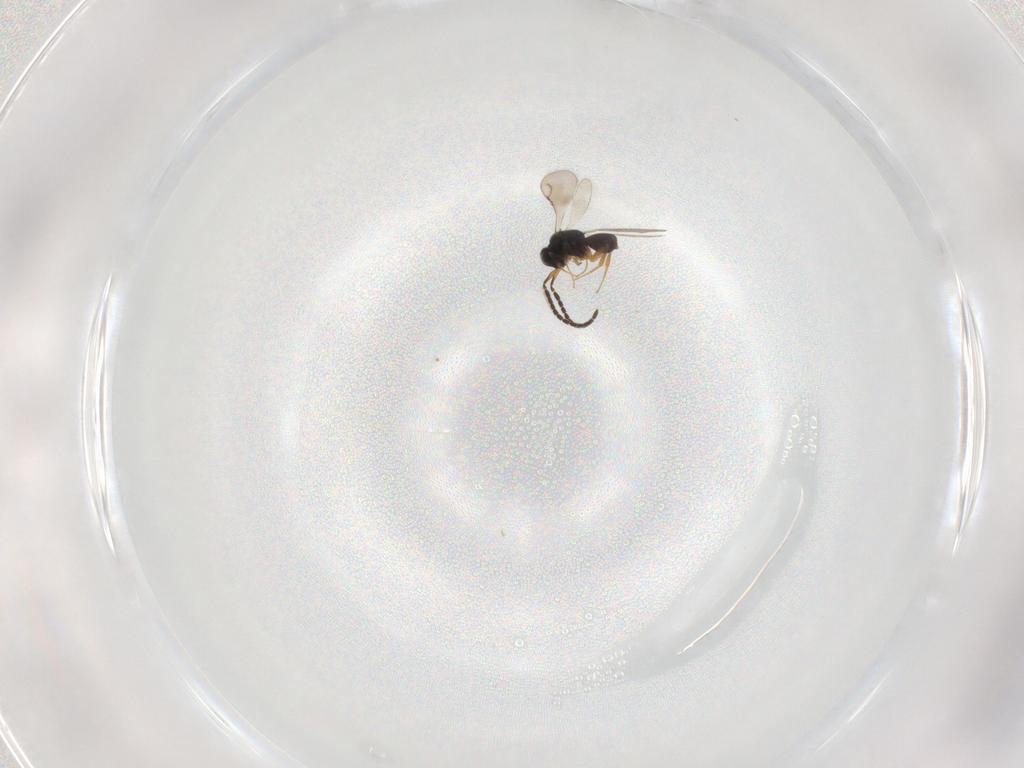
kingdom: Animalia
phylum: Arthropoda
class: Insecta
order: Hymenoptera
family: Ceraphronidae
